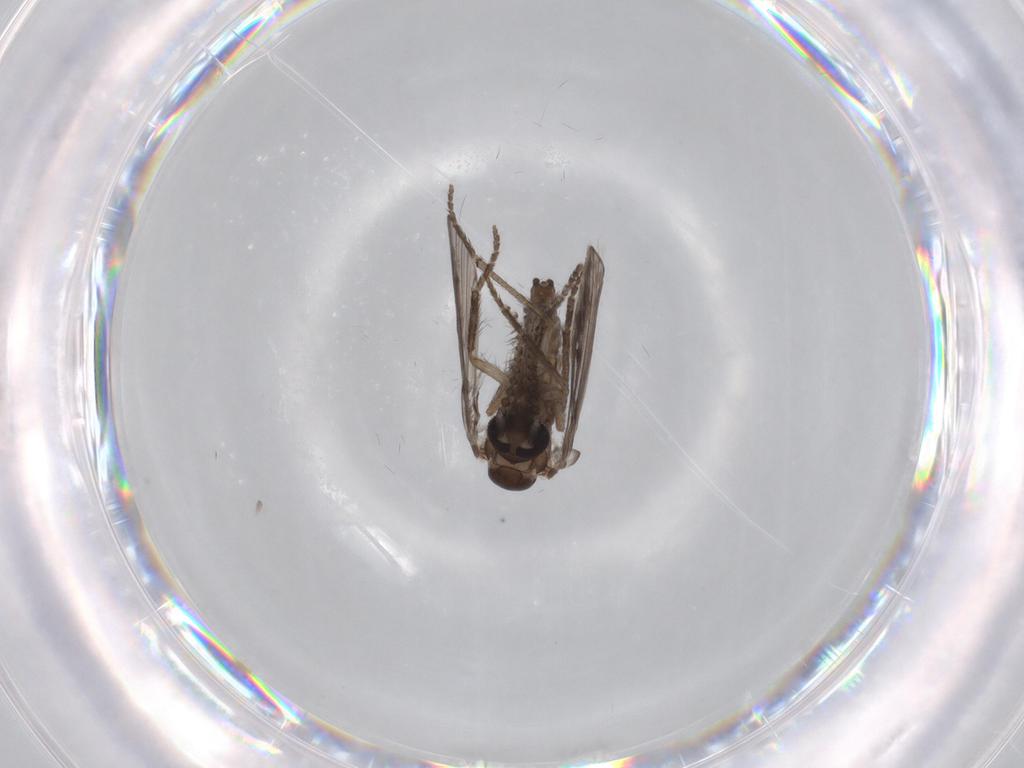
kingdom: Animalia
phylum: Arthropoda
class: Insecta
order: Diptera
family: Psychodidae
